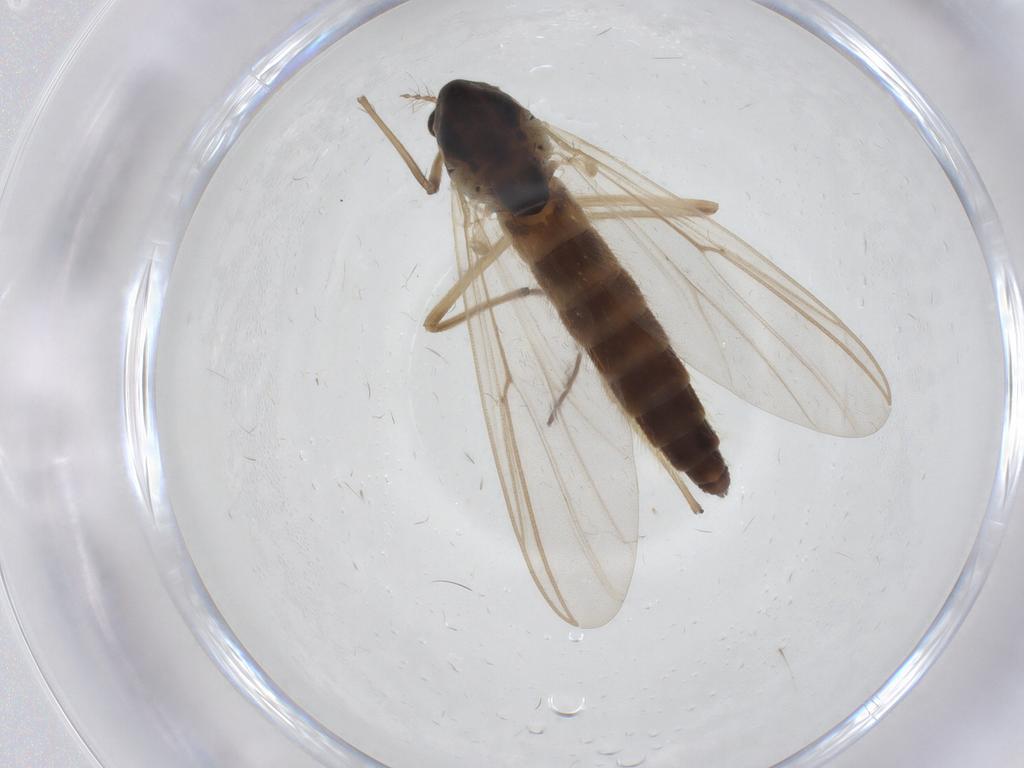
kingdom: Animalia
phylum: Arthropoda
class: Insecta
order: Diptera
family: Chironomidae
